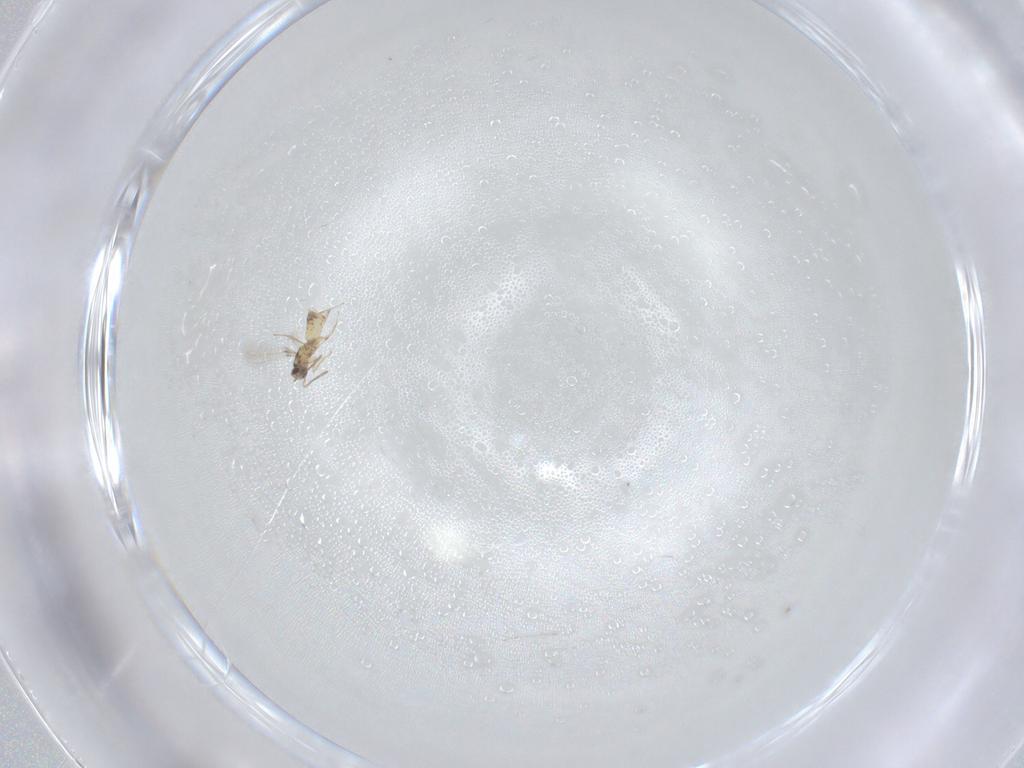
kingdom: Animalia
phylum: Arthropoda
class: Insecta
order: Hymenoptera
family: Mymaridae
